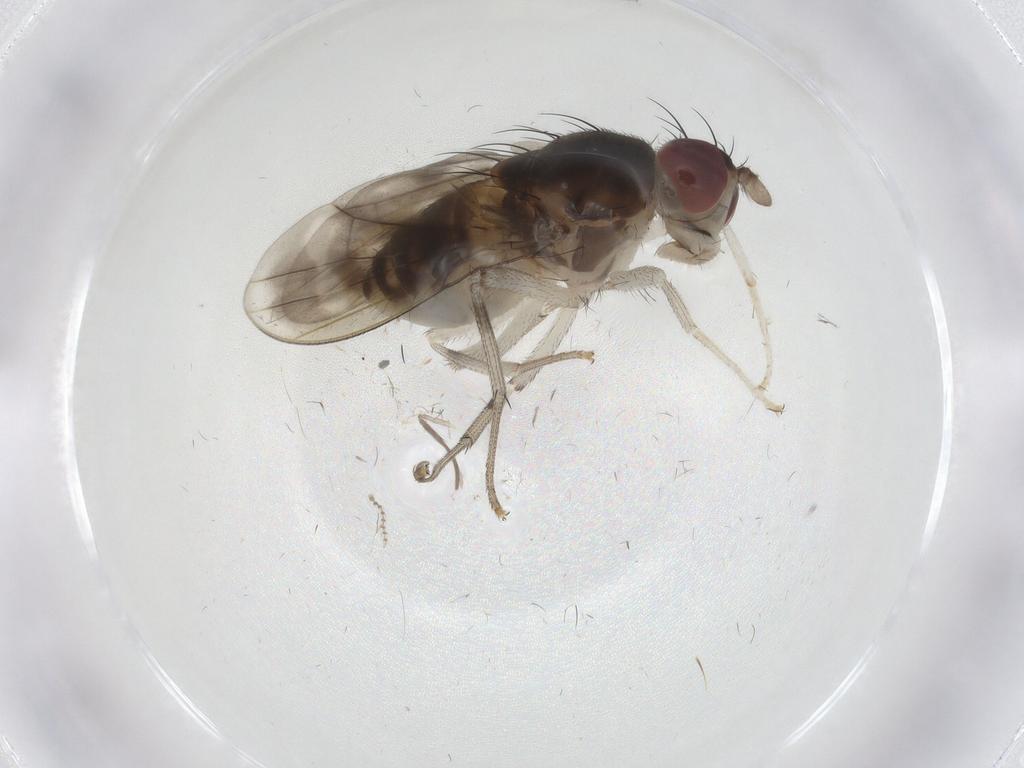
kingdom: Animalia
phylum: Arthropoda
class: Insecta
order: Diptera
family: Lauxaniidae
